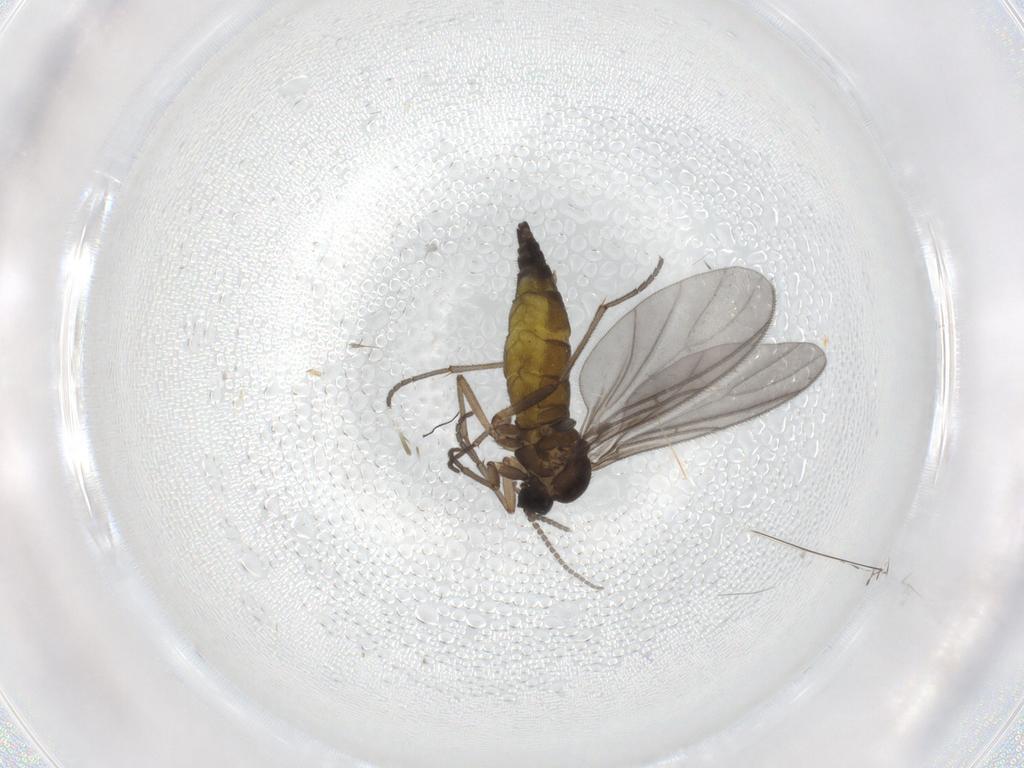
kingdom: Animalia
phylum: Arthropoda
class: Insecta
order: Diptera
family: Sciaridae
